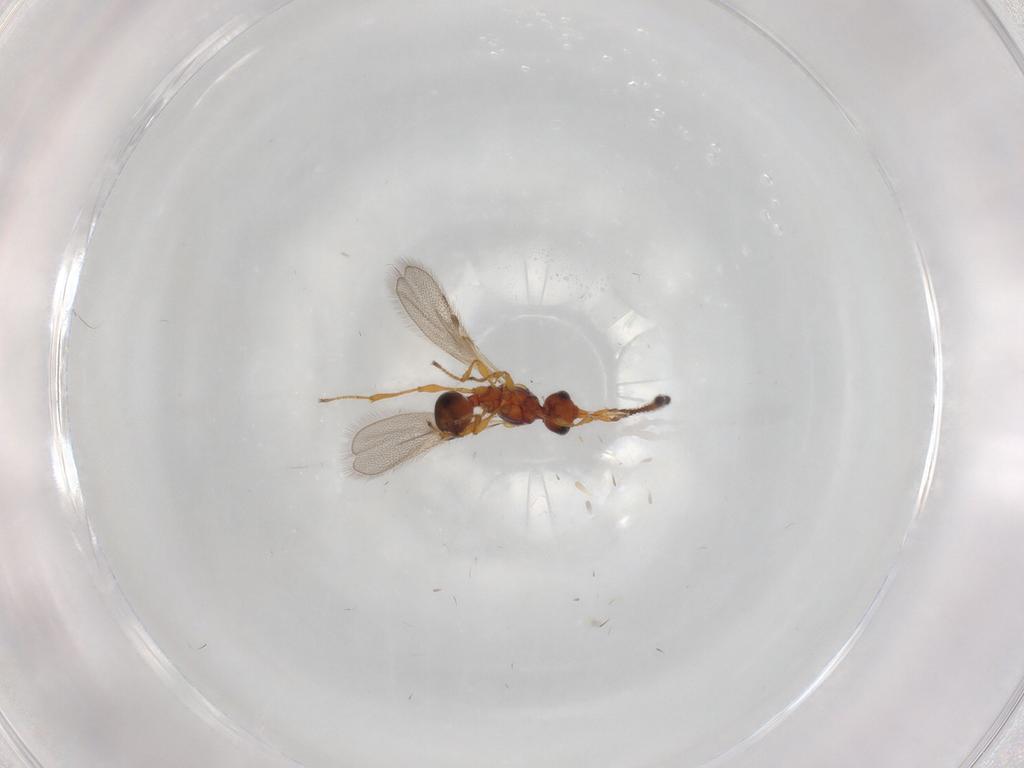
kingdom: Animalia
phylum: Arthropoda
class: Insecta
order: Hymenoptera
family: Diapriidae
